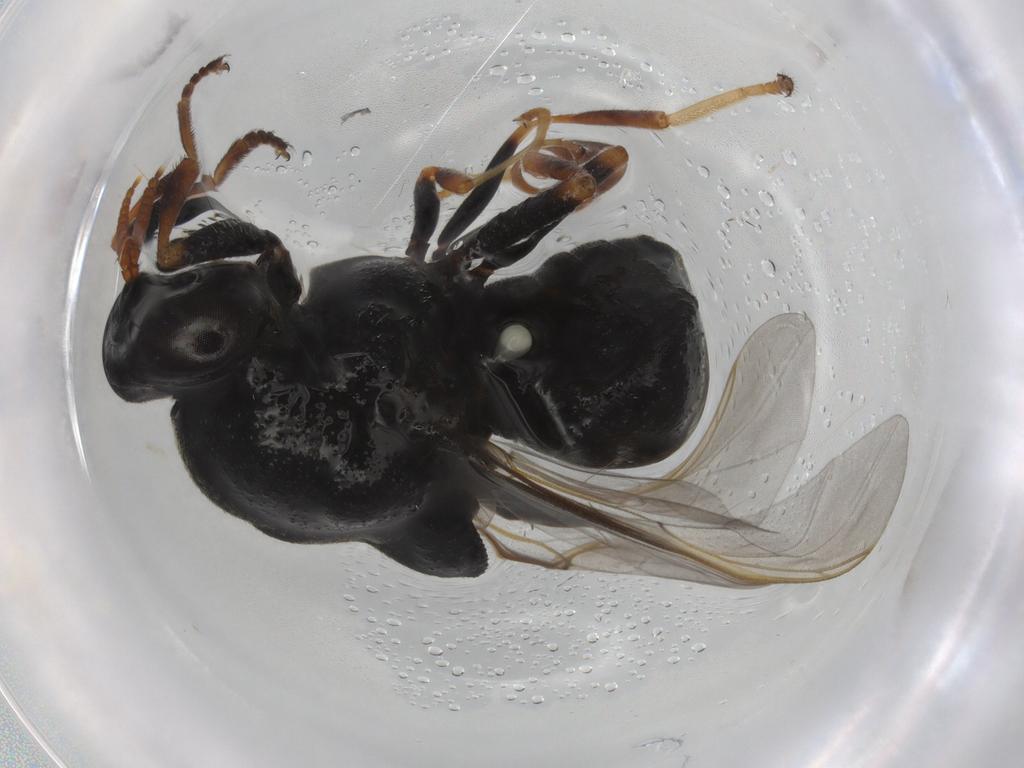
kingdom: Animalia
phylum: Arthropoda
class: Insecta
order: Diptera
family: Stratiomyidae
